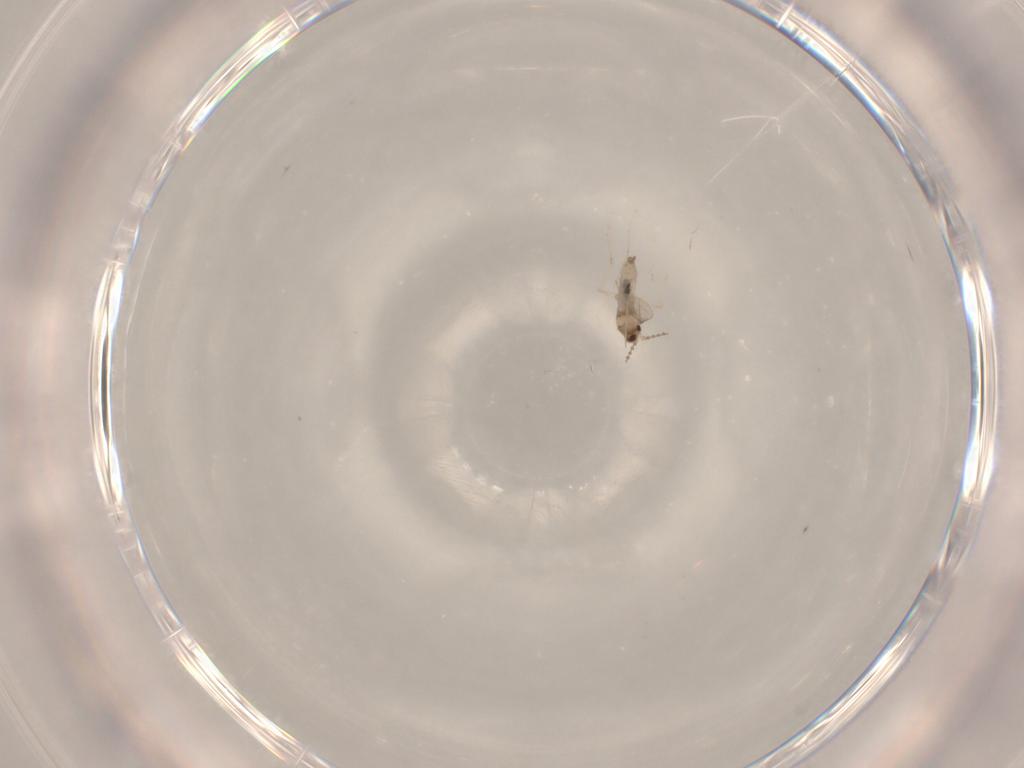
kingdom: Animalia
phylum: Arthropoda
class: Insecta
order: Diptera
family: Cecidomyiidae
